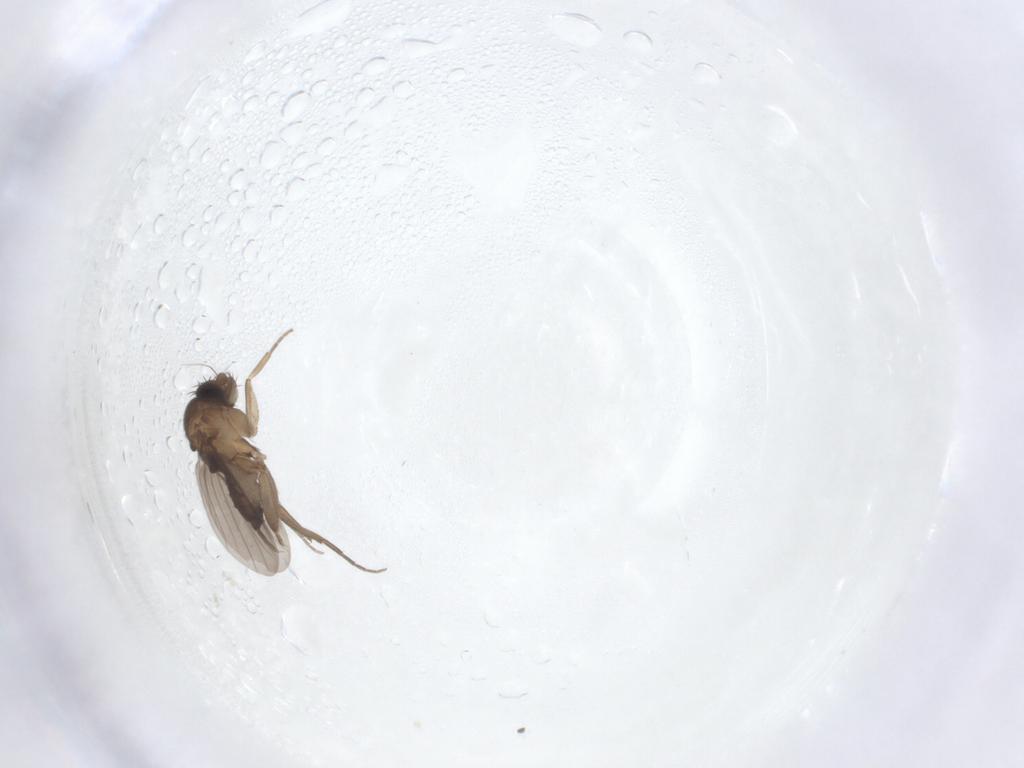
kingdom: Animalia
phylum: Arthropoda
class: Insecta
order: Diptera
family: Phoridae
